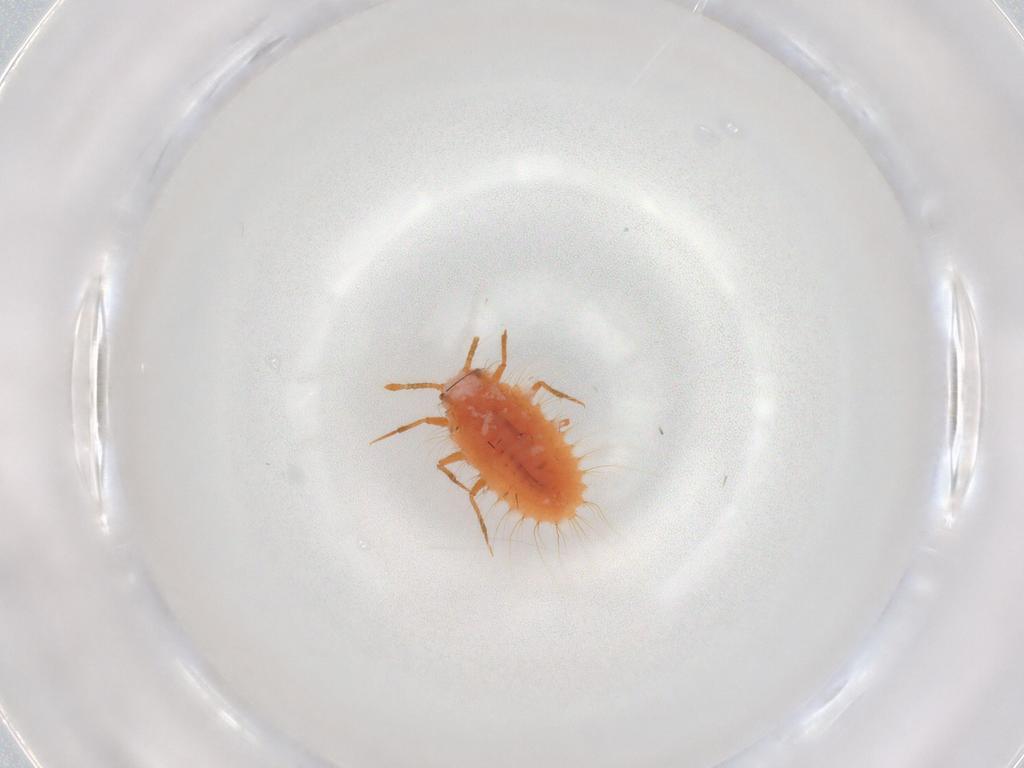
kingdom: Animalia
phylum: Arthropoda
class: Insecta
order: Hemiptera
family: Coccoidea_incertae_sedis
